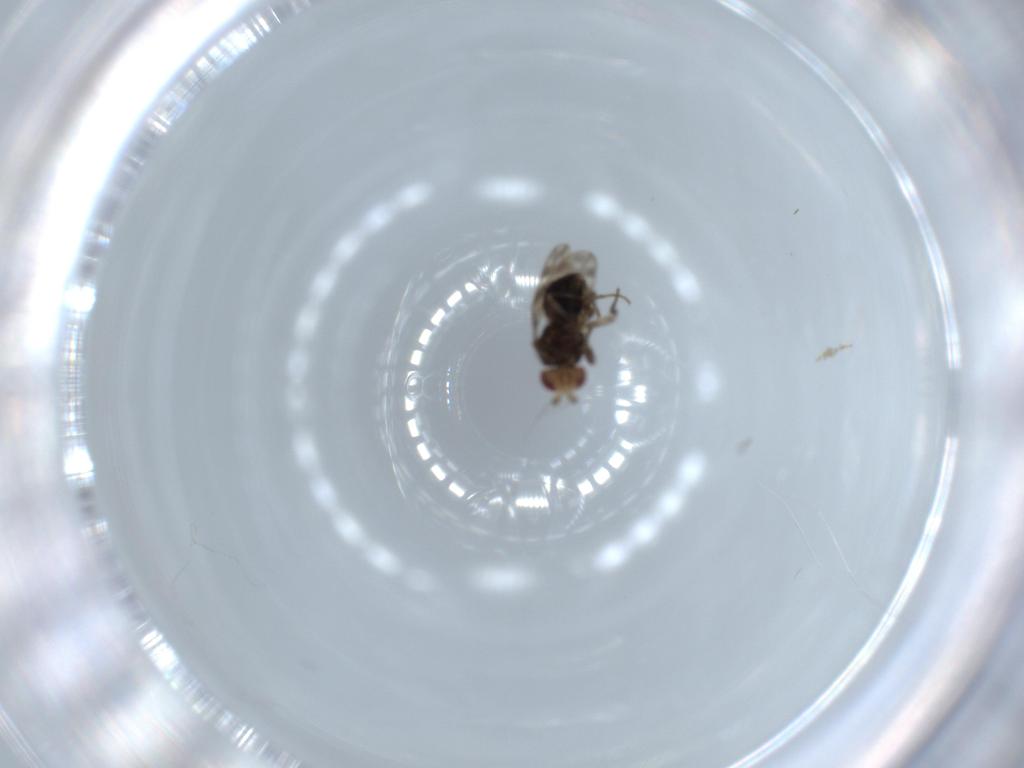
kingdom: Animalia
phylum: Arthropoda
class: Insecta
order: Diptera
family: Sphaeroceridae
